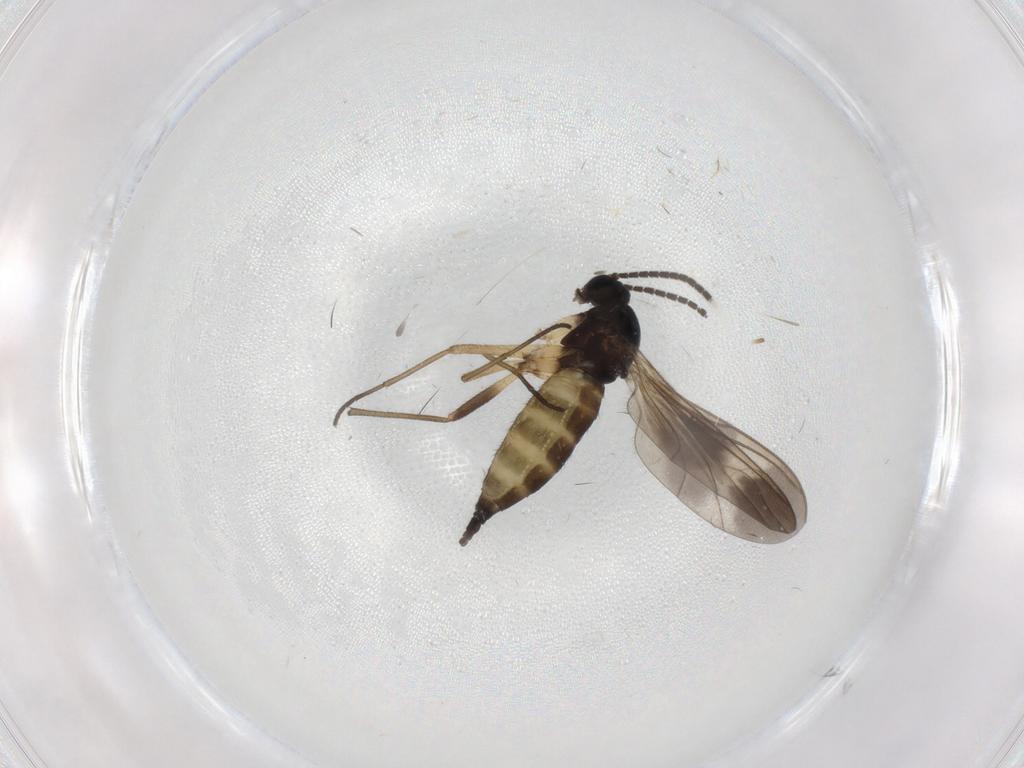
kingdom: Animalia
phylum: Arthropoda
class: Insecta
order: Diptera
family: Sciaridae
